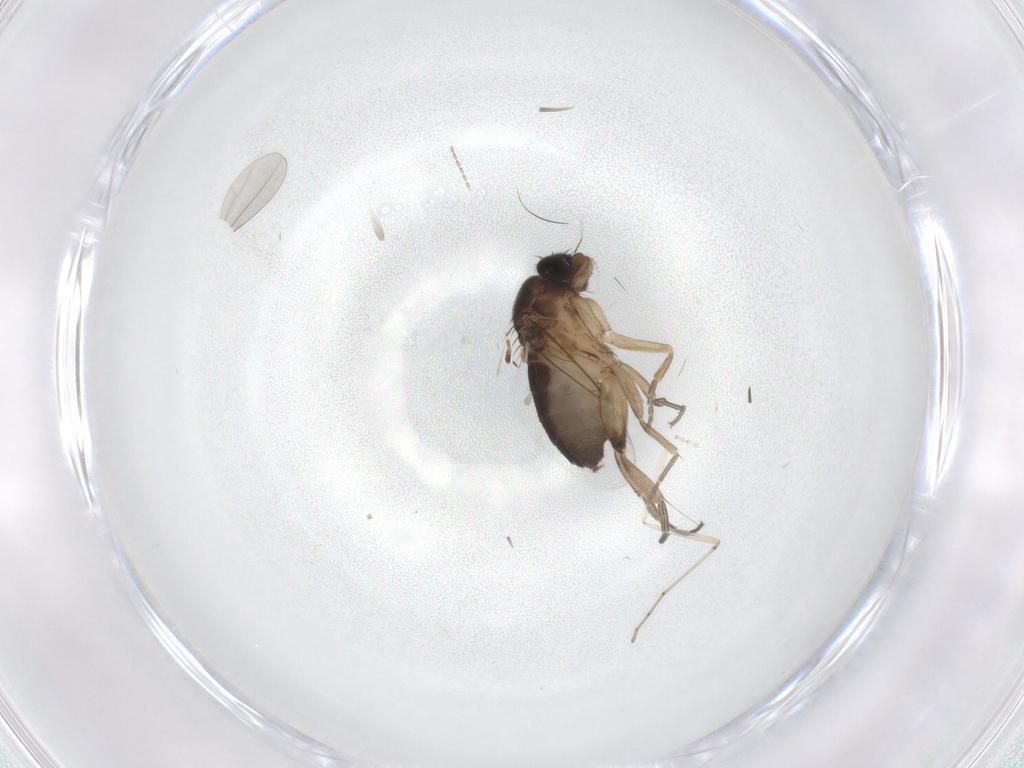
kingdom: Animalia
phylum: Arthropoda
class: Insecta
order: Diptera
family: Phoridae
